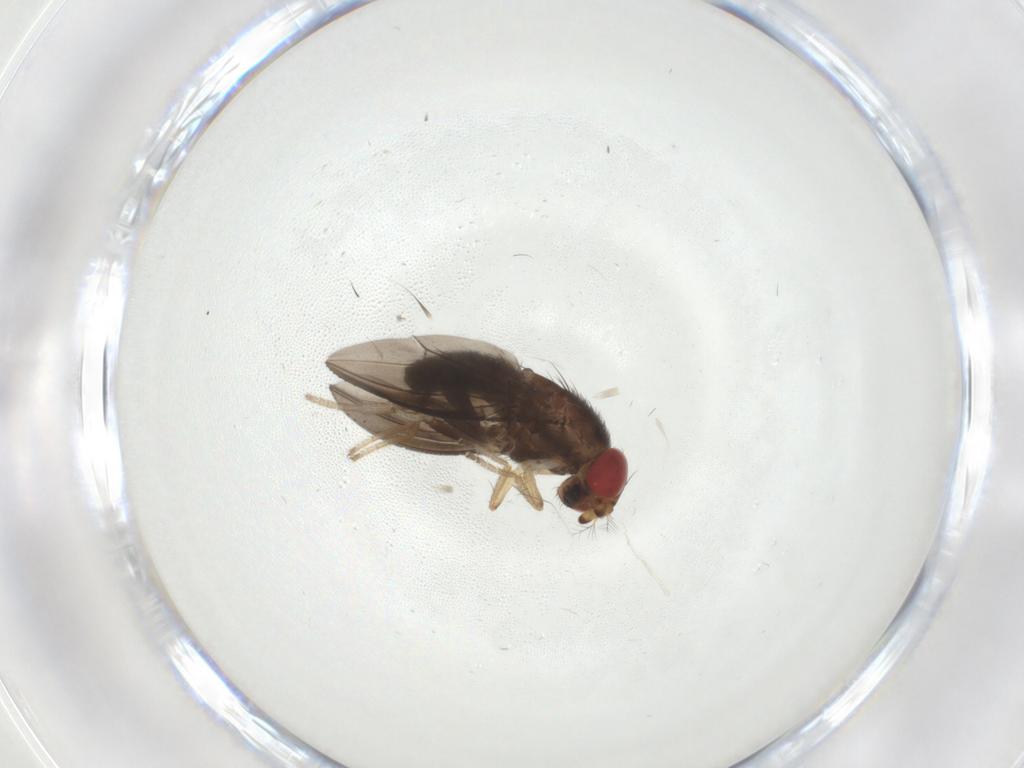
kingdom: Animalia
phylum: Arthropoda
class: Insecta
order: Diptera
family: Drosophilidae
